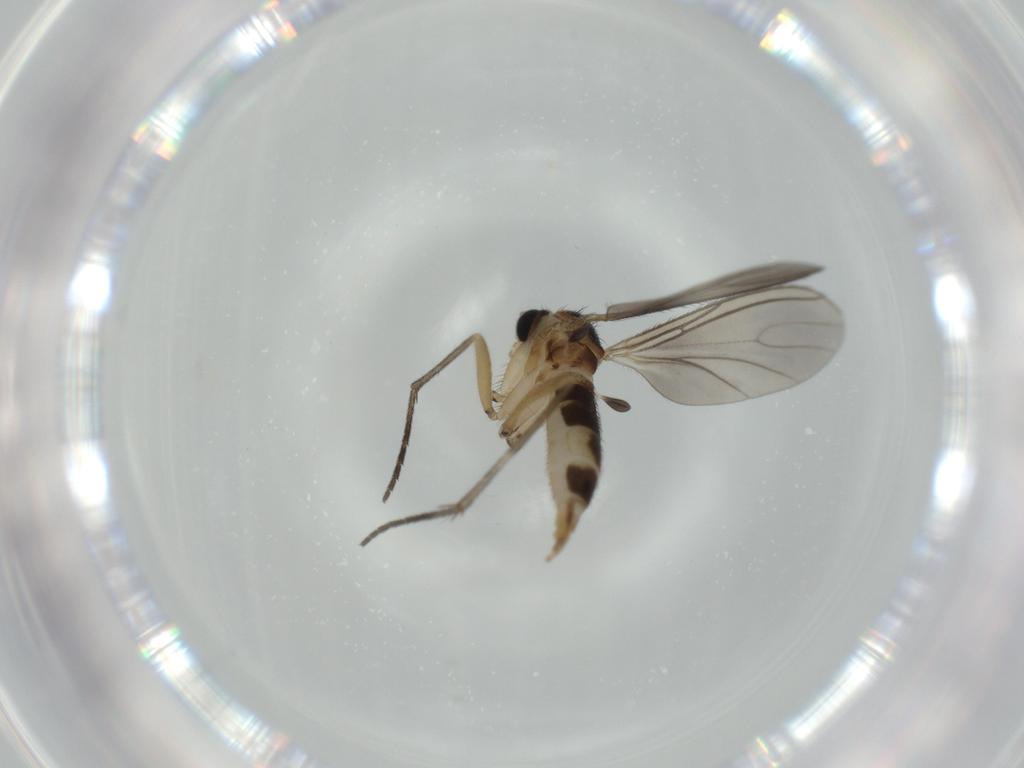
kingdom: Animalia
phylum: Arthropoda
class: Insecta
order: Diptera
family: Sciaridae
